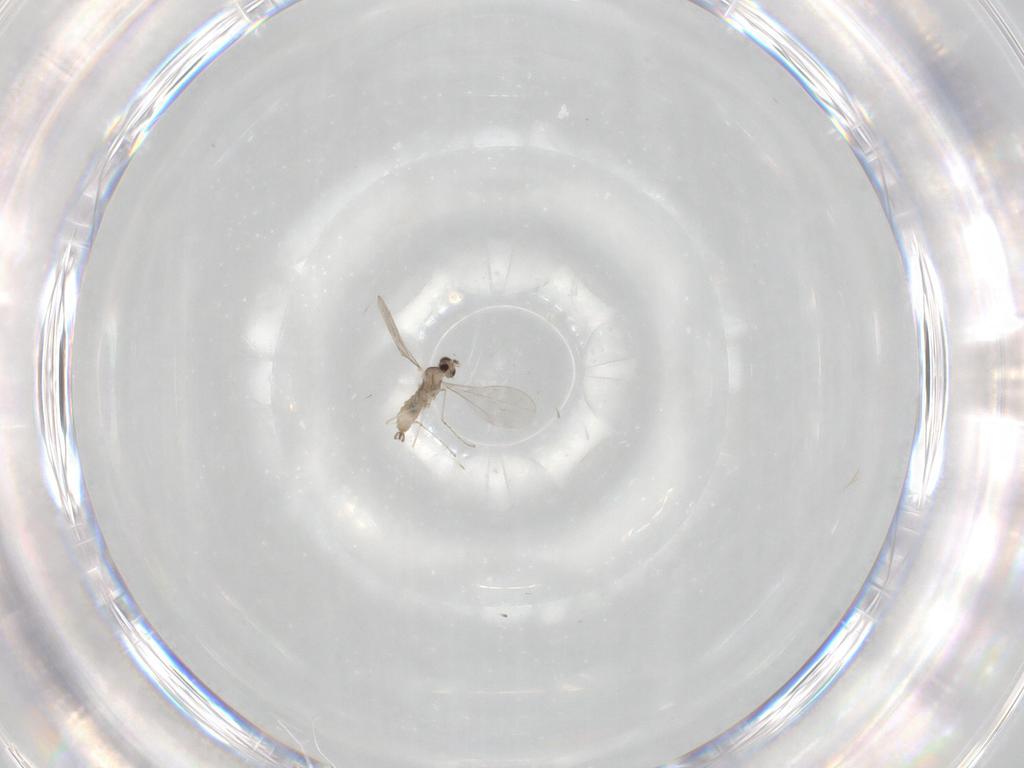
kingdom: Animalia
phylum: Arthropoda
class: Insecta
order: Diptera
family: Cecidomyiidae
